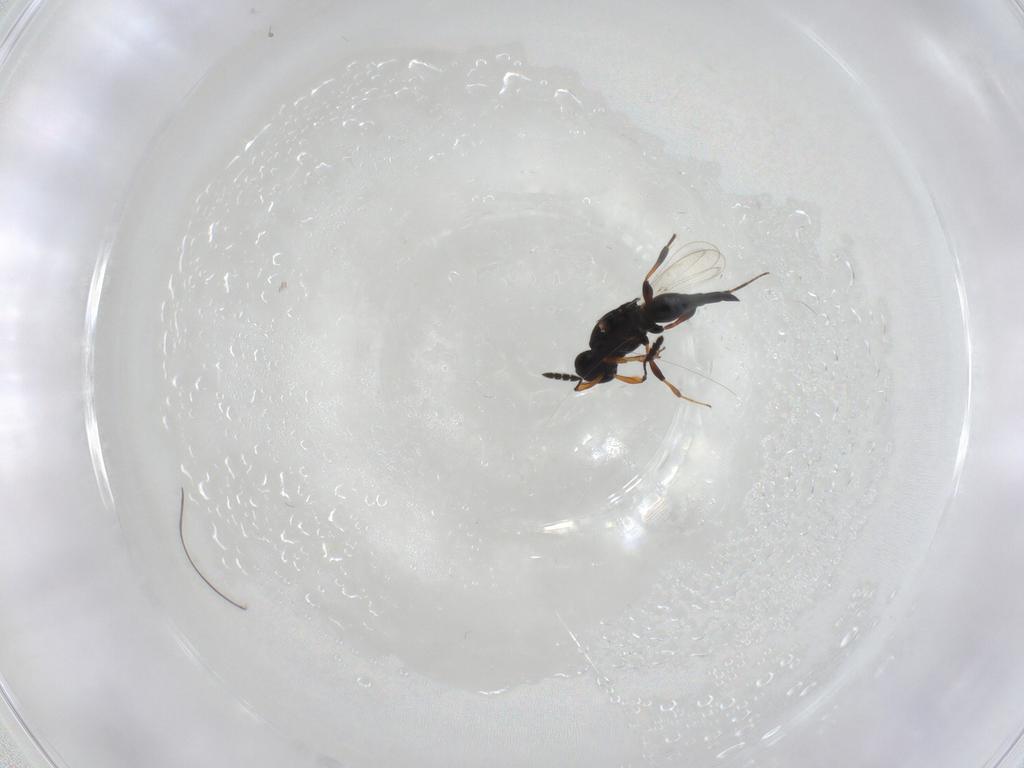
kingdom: Animalia
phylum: Arthropoda
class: Insecta
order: Hymenoptera
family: Platygastridae
